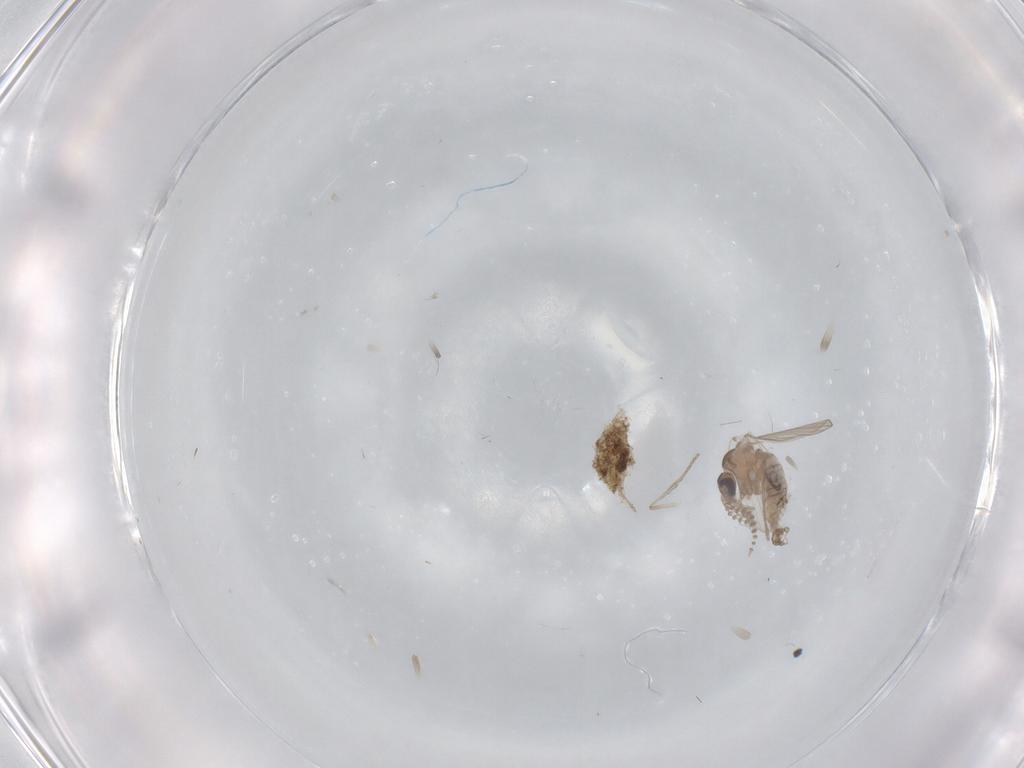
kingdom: Animalia
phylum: Arthropoda
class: Insecta
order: Diptera
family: Psychodidae
